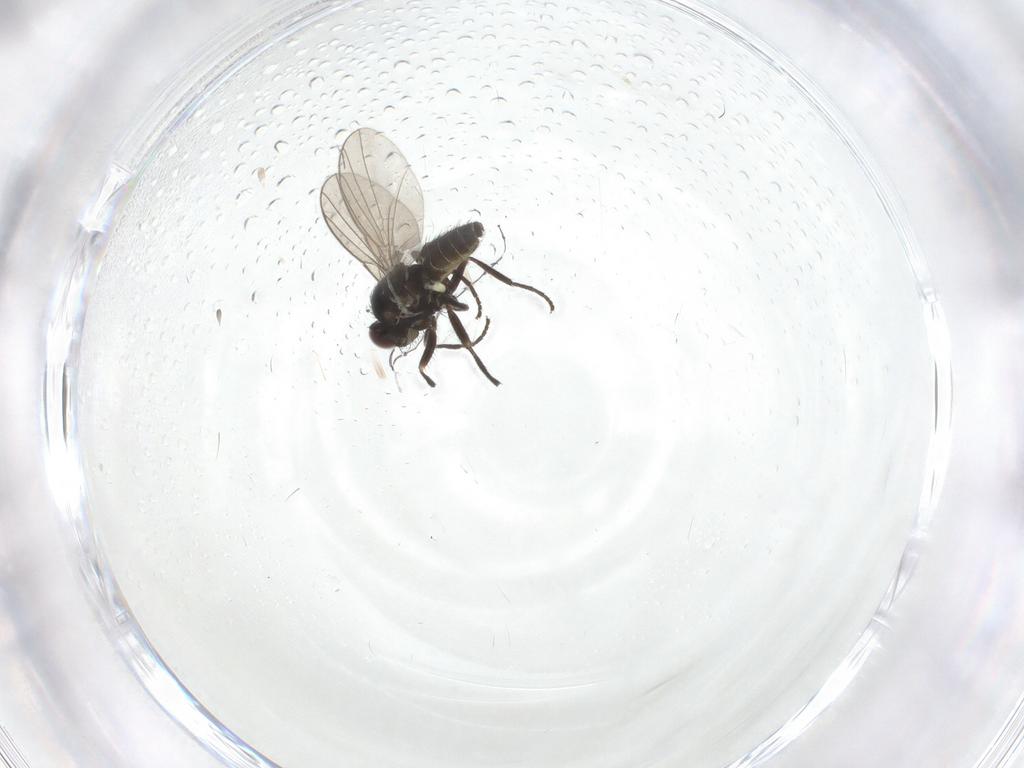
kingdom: Animalia
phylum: Arthropoda
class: Insecta
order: Diptera
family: Agromyzidae
